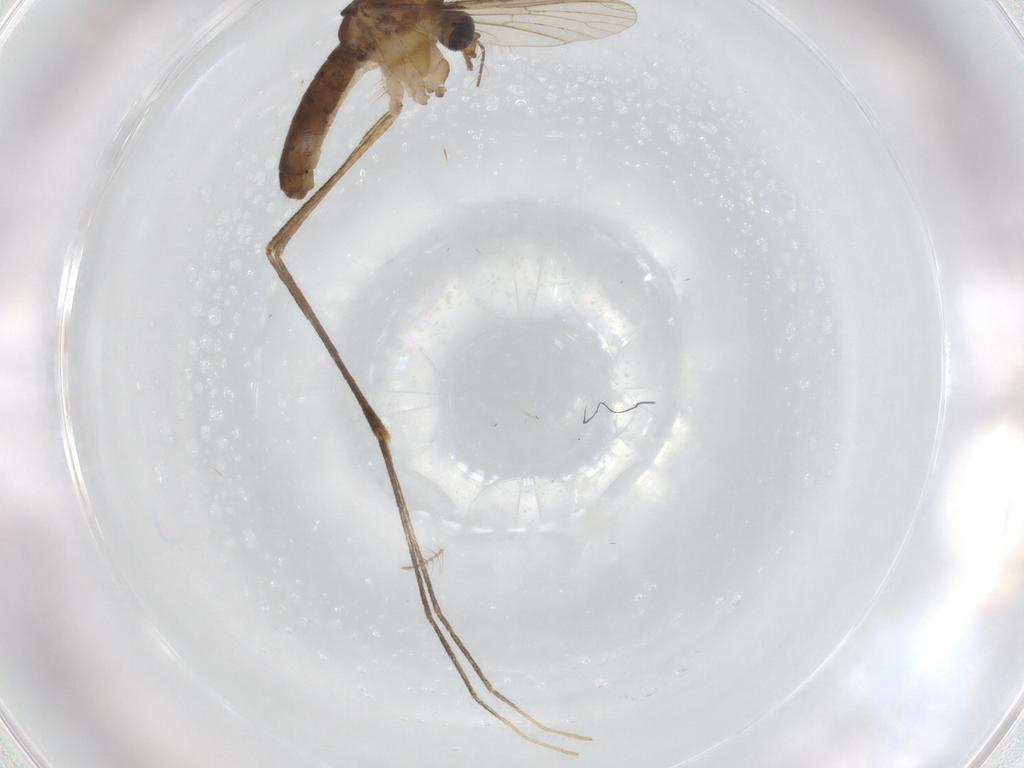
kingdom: Animalia
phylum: Arthropoda
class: Insecta
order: Diptera
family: Sphaeroceridae
